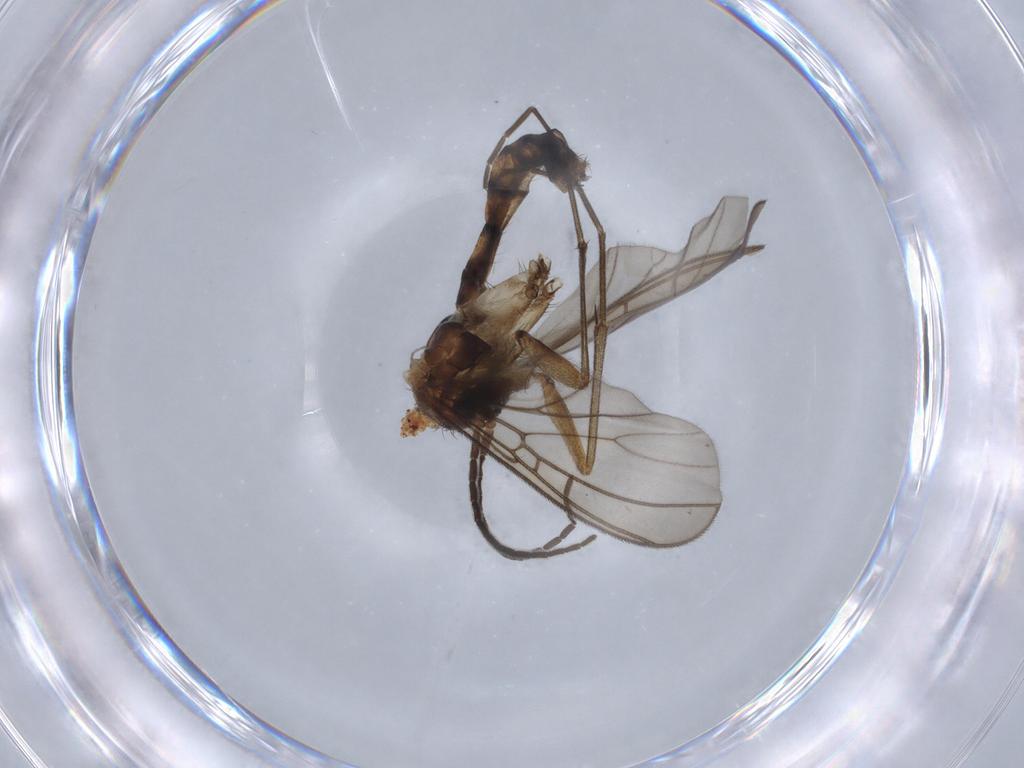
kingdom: Animalia
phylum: Arthropoda
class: Insecta
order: Diptera
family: Mycetophilidae
